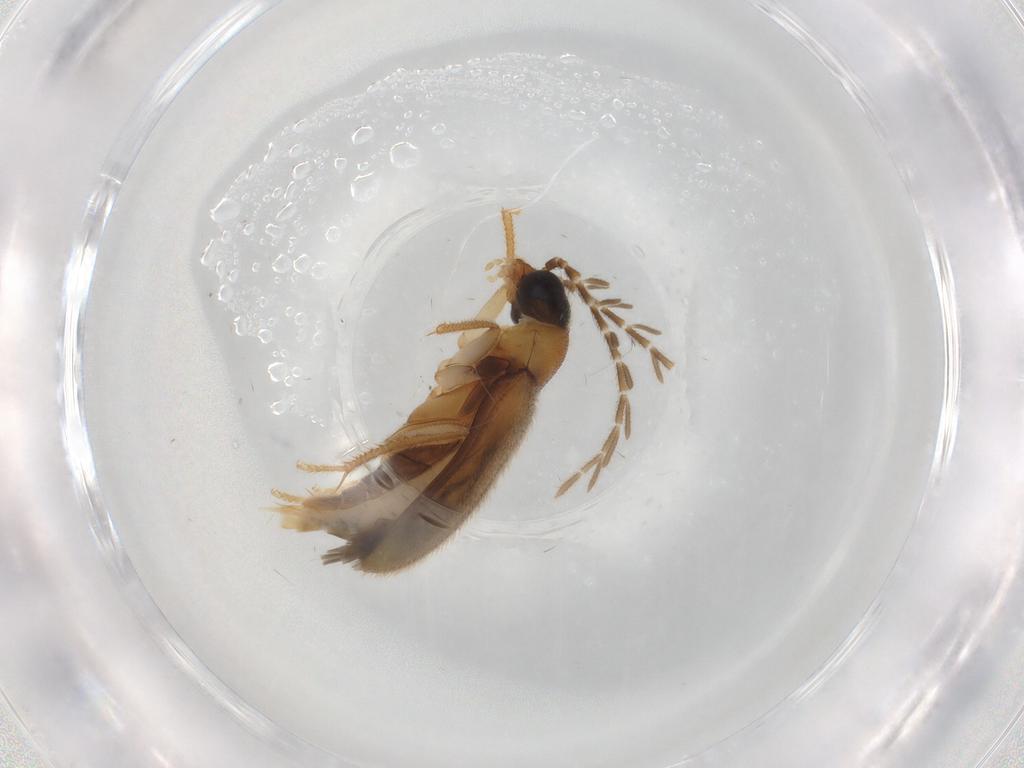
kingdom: Animalia
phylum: Arthropoda
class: Insecta
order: Coleoptera
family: Ptilodactylidae
